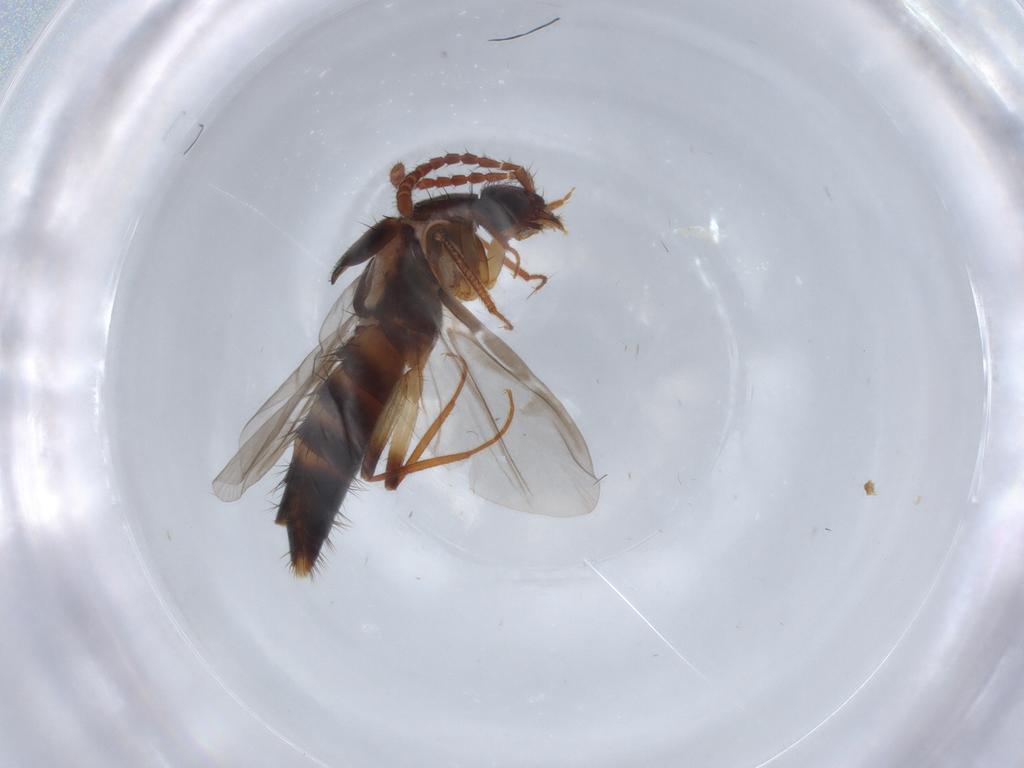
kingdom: Animalia
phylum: Arthropoda
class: Insecta
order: Coleoptera
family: Staphylinidae
